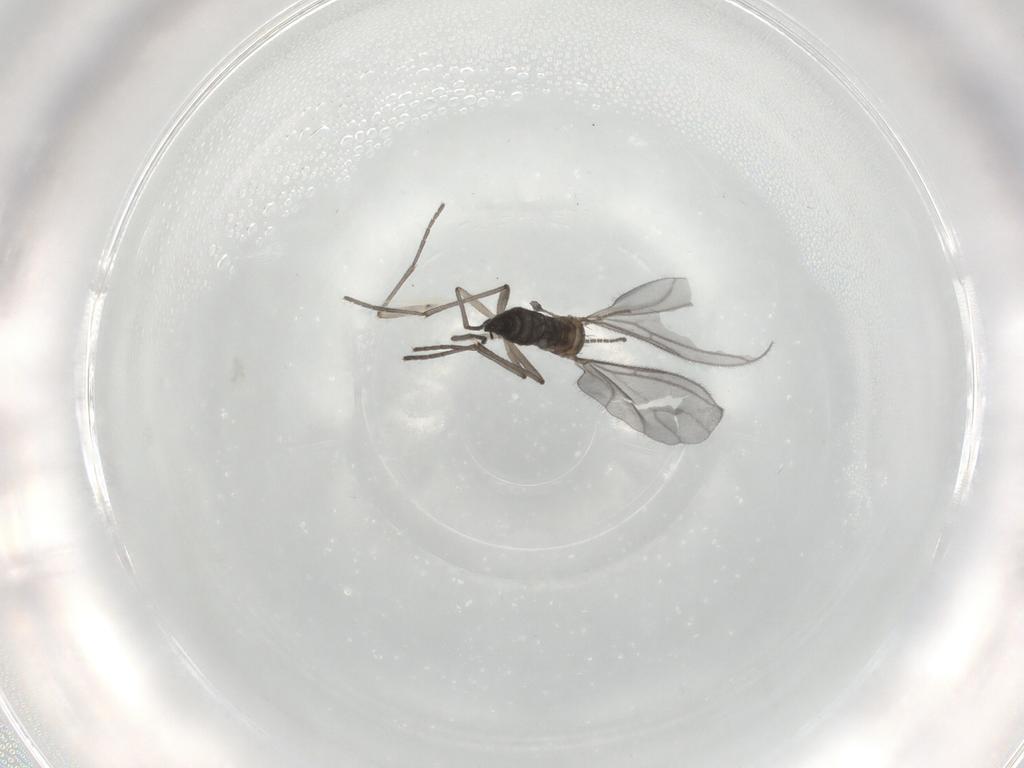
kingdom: Animalia
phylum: Arthropoda
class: Insecta
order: Diptera
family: Sciaridae
